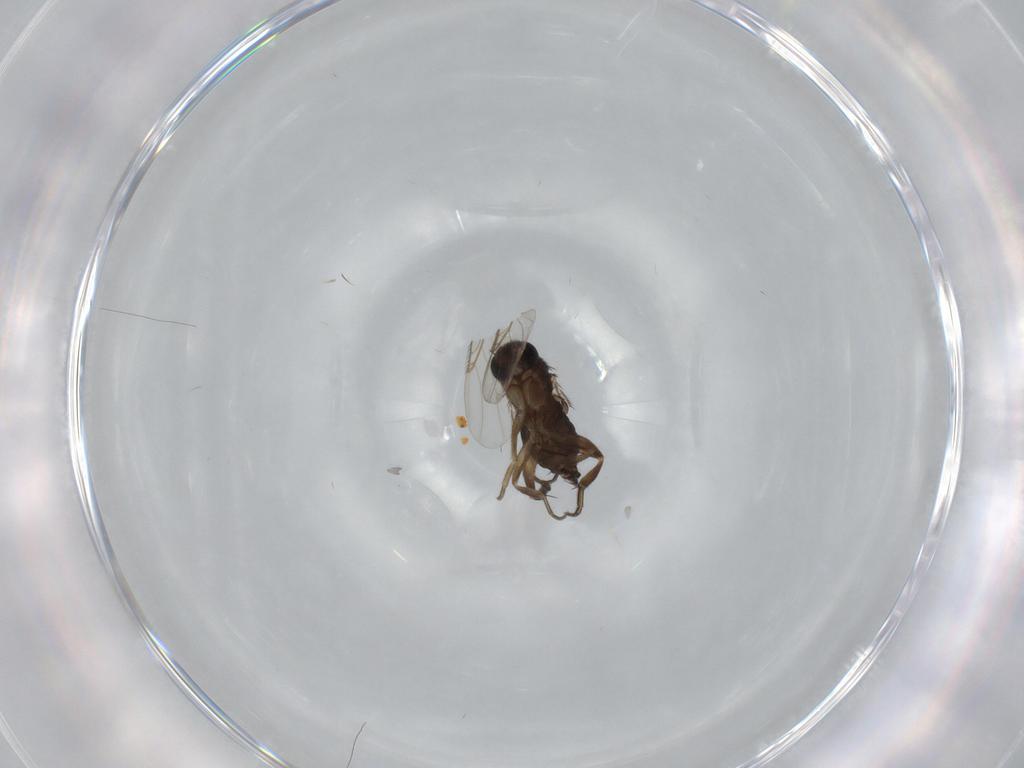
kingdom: Animalia
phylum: Arthropoda
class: Insecta
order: Diptera
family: Phoridae
